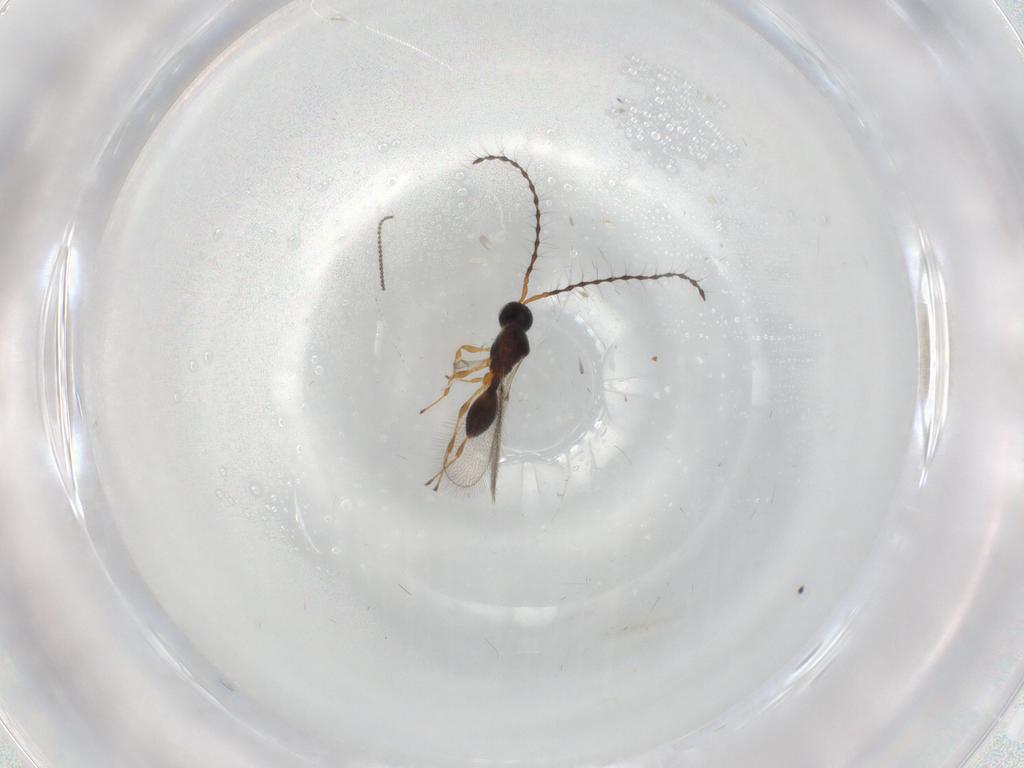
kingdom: Animalia
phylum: Arthropoda
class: Insecta
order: Hymenoptera
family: Diapriidae
